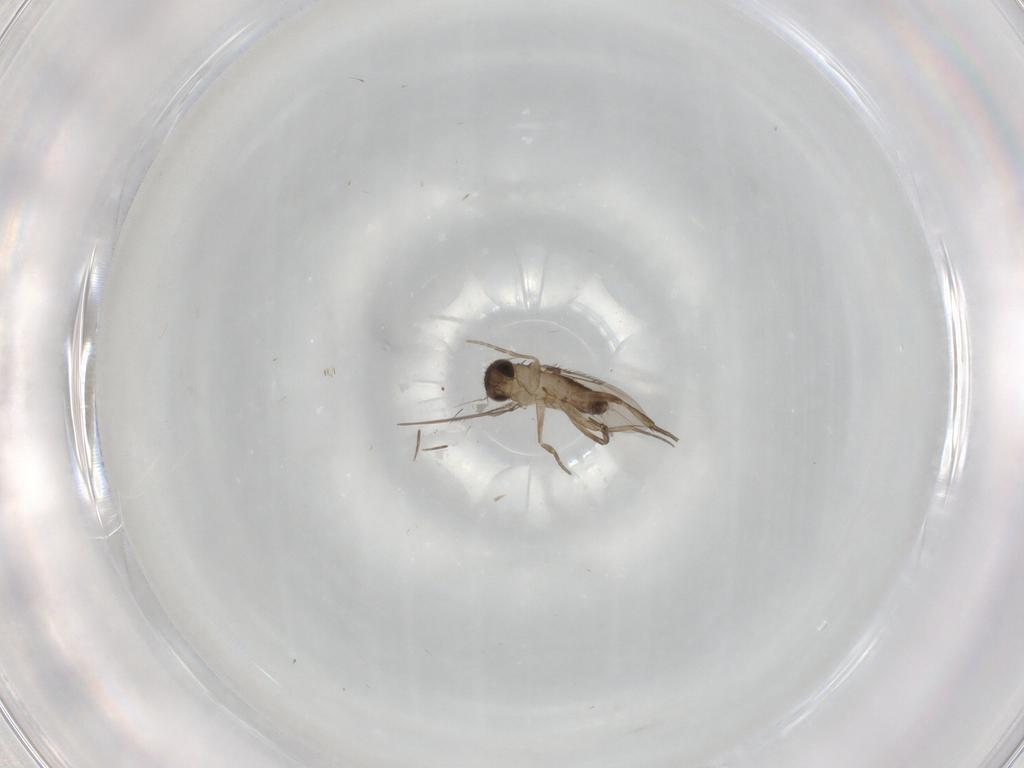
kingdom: Animalia
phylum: Arthropoda
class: Insecta
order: Diptera
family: Phoridae
